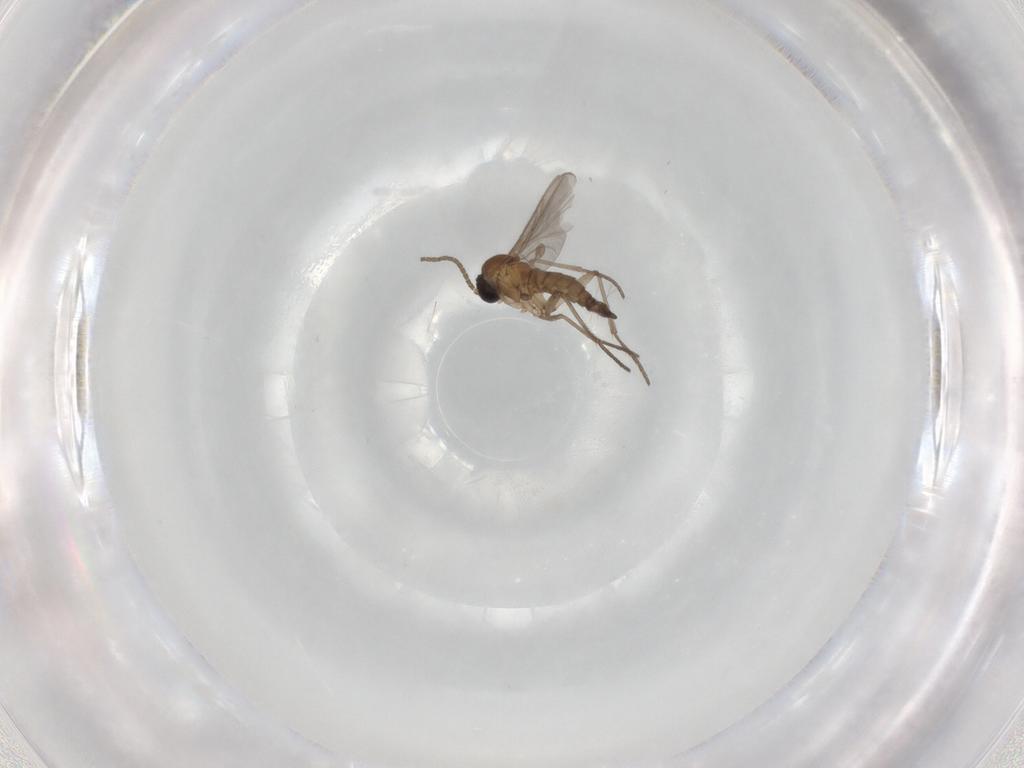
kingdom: Animalia
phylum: Arthropoda
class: Insecta
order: Diptera
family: Sciaridae
